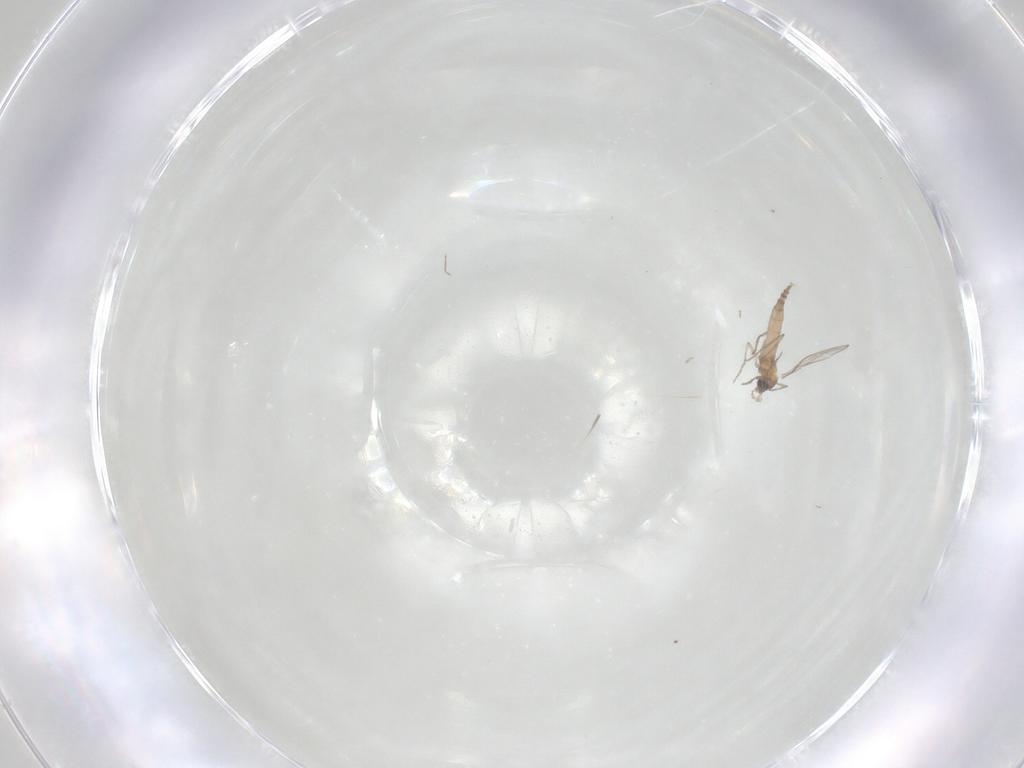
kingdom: Animalia
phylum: Arthropoda
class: Insecta
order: Diptera
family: Cecidomyiidae
